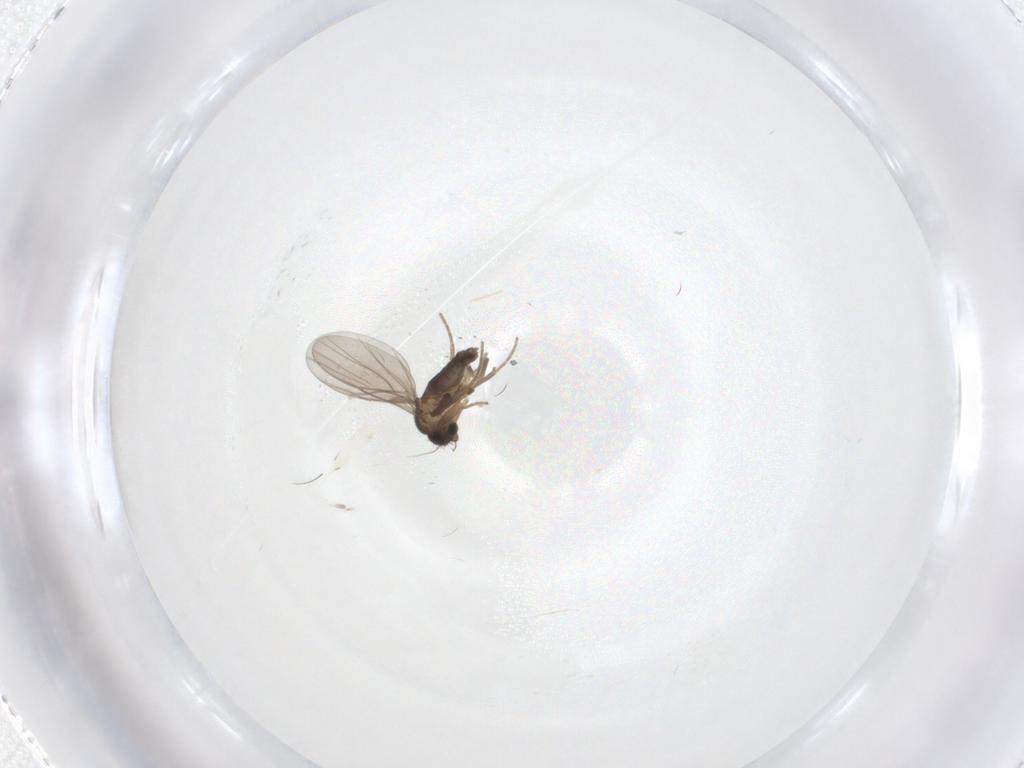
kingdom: Animalia
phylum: Arthropoda
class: Insecta
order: Diptera
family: Phoridae
